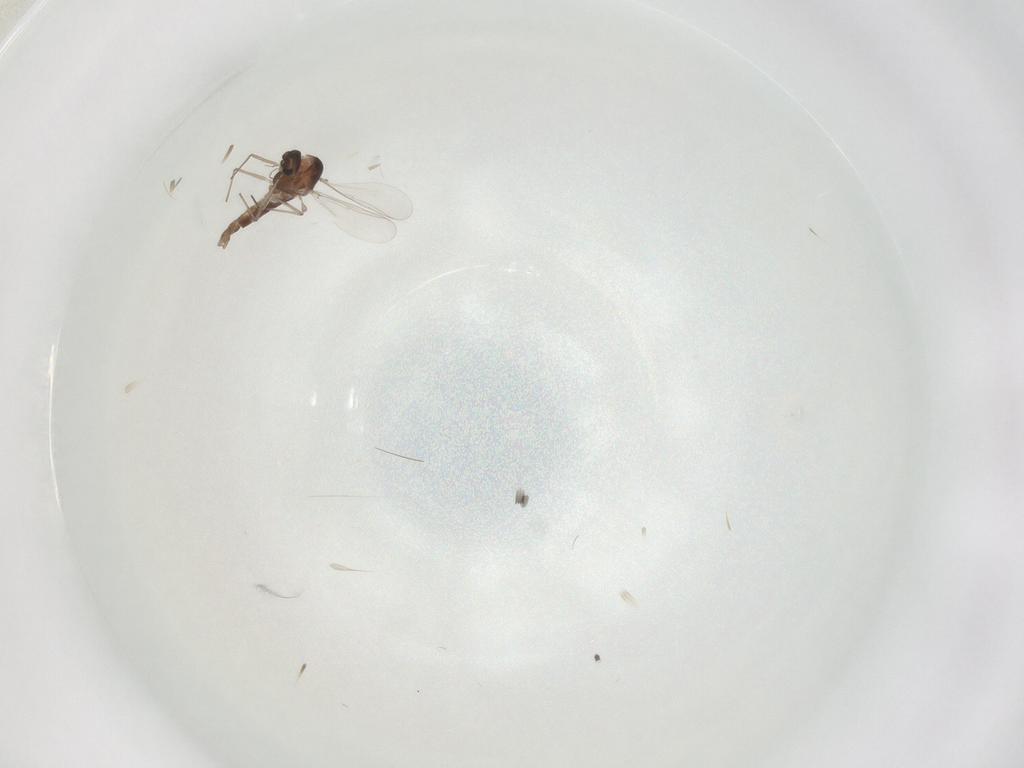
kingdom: Animalia
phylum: Arthropoda
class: Insecta
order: Diptera
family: Chironomidae
